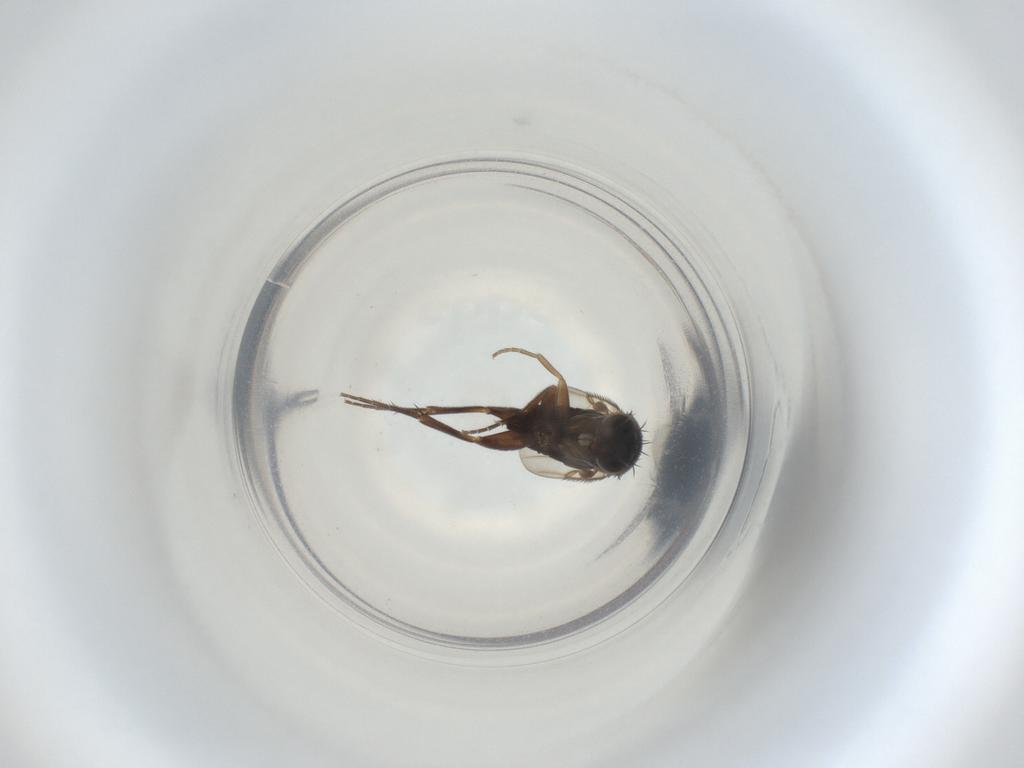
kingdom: Animalia
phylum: Arthropoda
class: Insecta
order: Diptera
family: Phoridae
